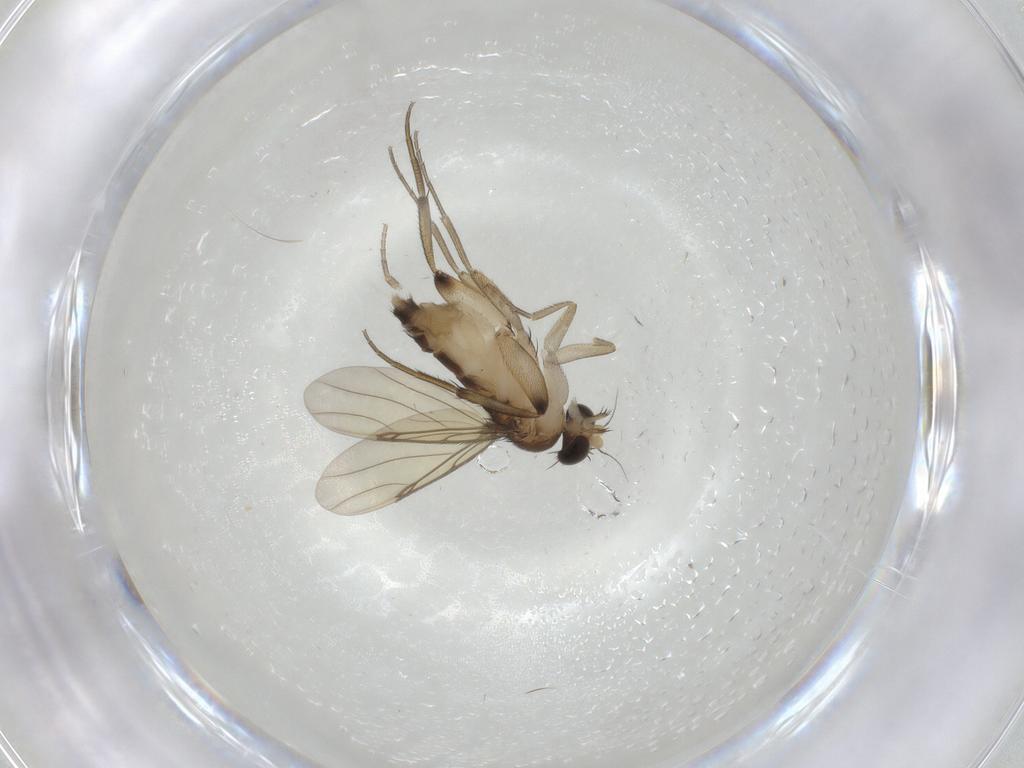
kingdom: Animalia
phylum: Arthropoda
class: Insecta
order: Diptera
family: Phoridae
